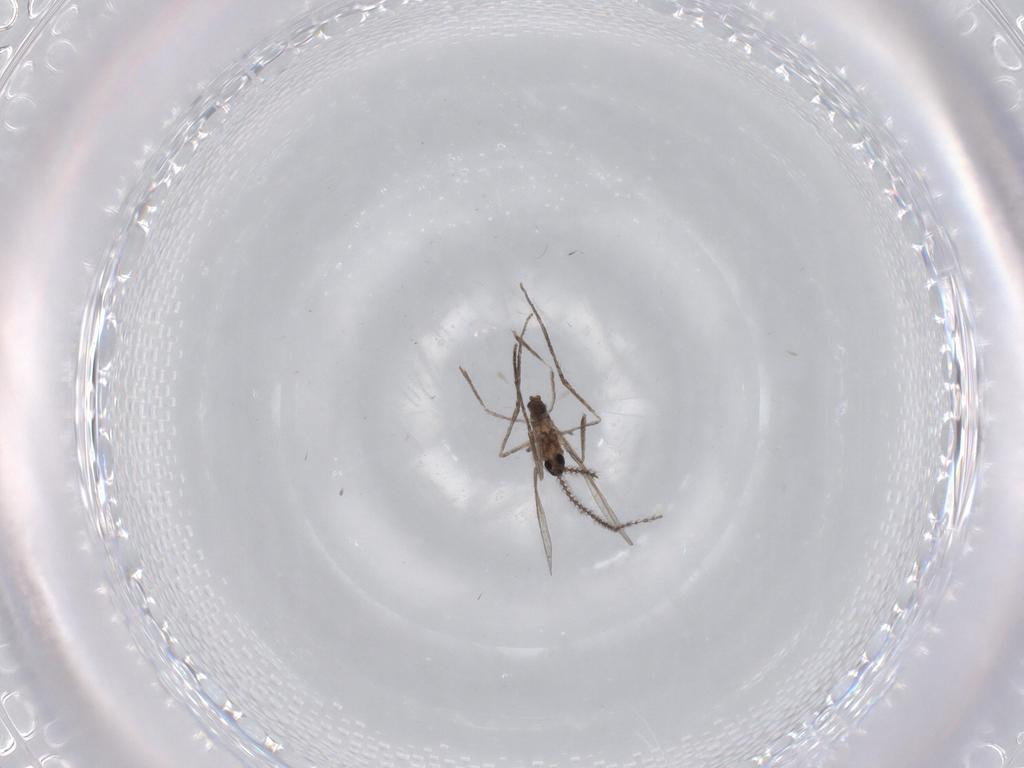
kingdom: Animalia
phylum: Arthropoda
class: Insecta
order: Diptera
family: Cecidomyiidae
